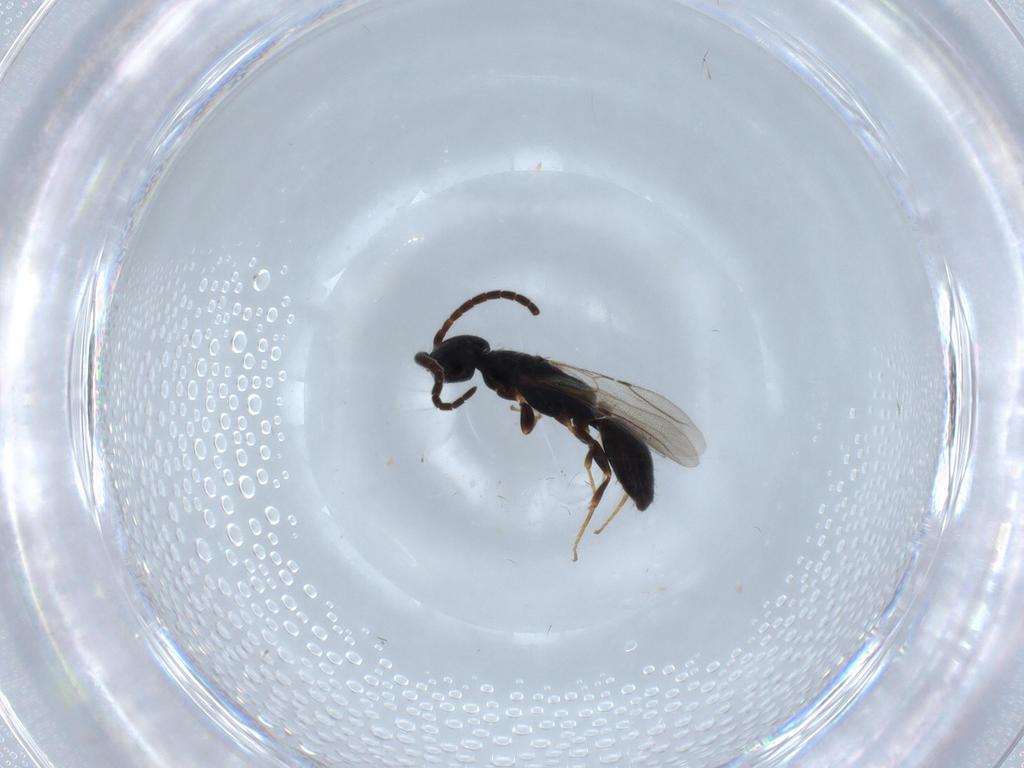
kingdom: Animalia
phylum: Arthropoda
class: Insecta
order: Hymenoptera
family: Bethylidae
